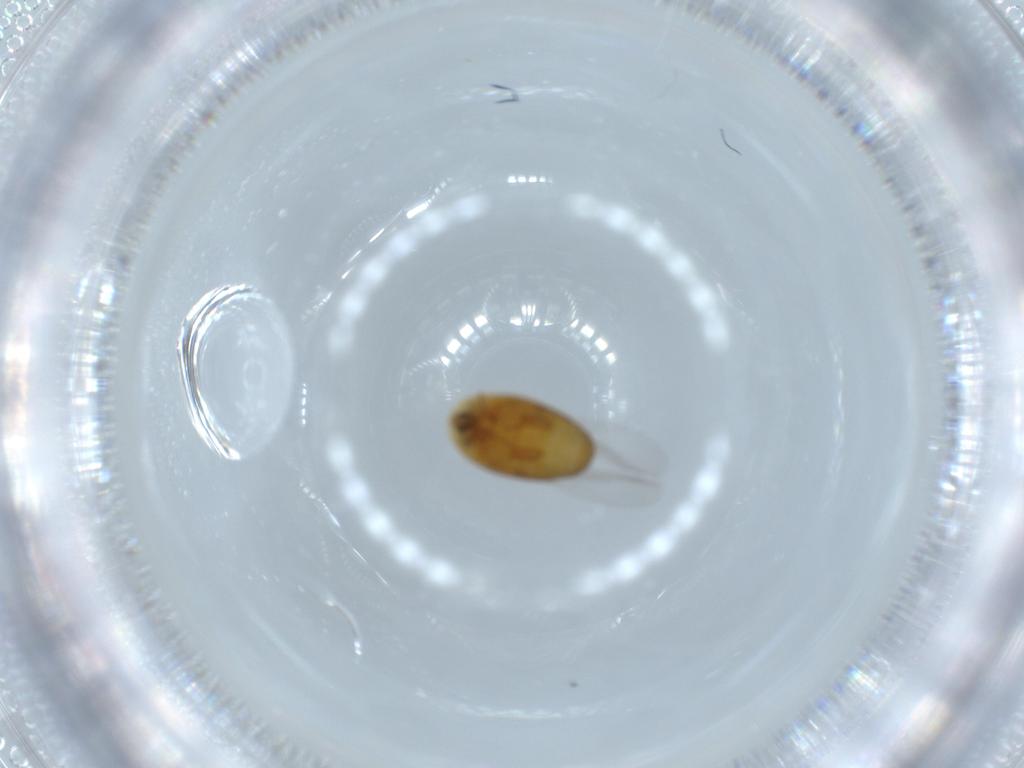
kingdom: Animalia
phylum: Arthropoda
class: Insecta
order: Coleoptera
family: Corylophidae
